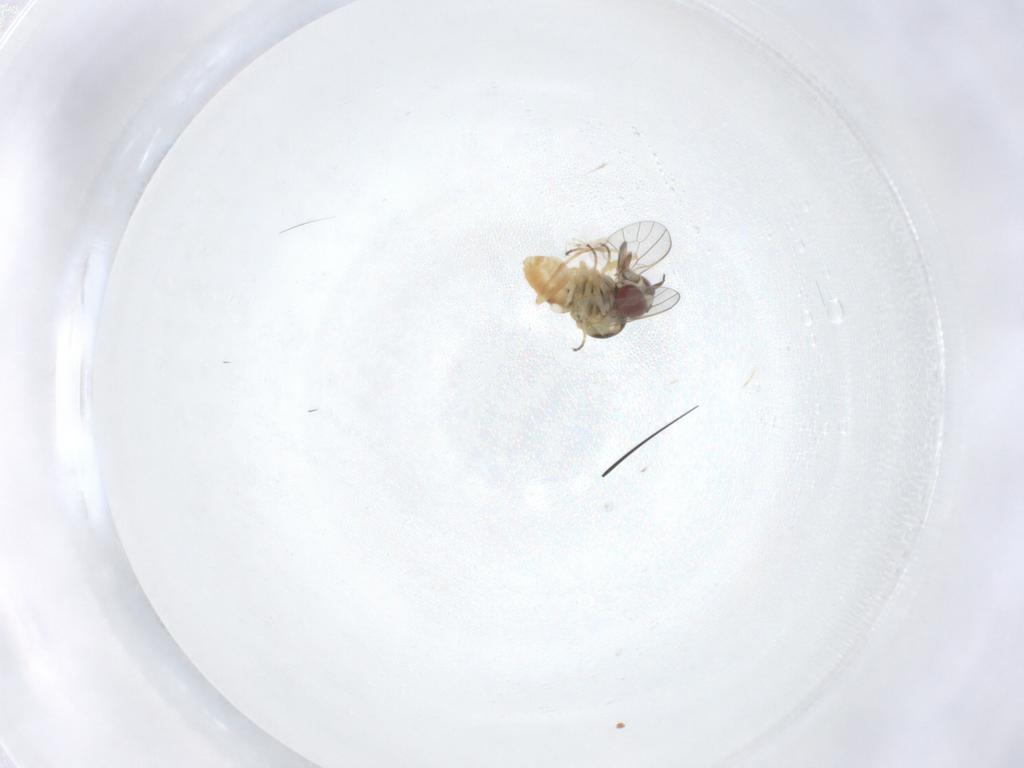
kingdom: Animalia
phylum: Arthropoda
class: Insecta
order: Diptera
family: Mythicomyiidae
